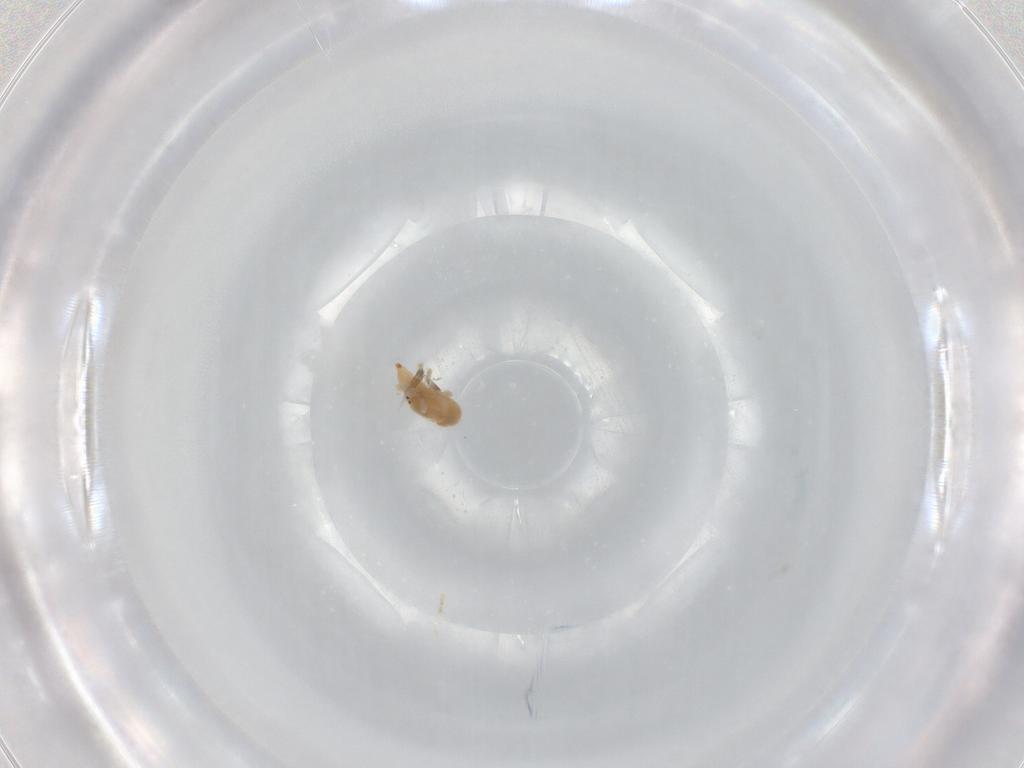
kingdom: Animalia
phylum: Arthropoda
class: Arachnida
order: Trombidiformes
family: Bdellidae
